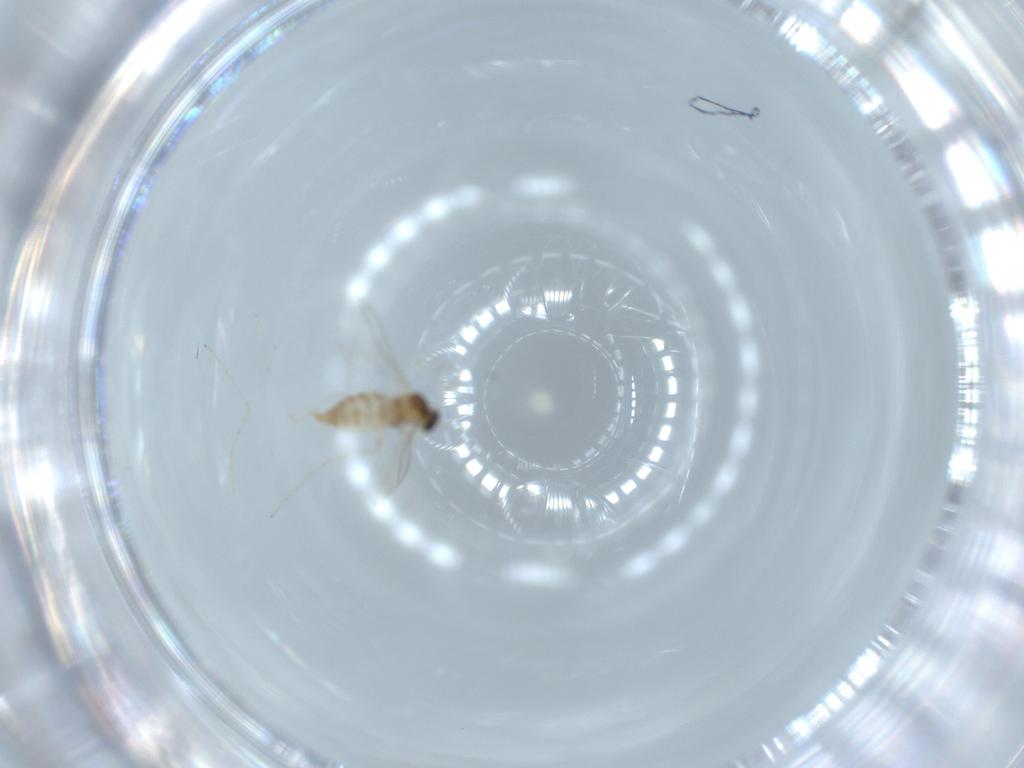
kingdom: Animalia
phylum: Arthropoda
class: Insecta
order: Diptera
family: Cecidomyiidae
